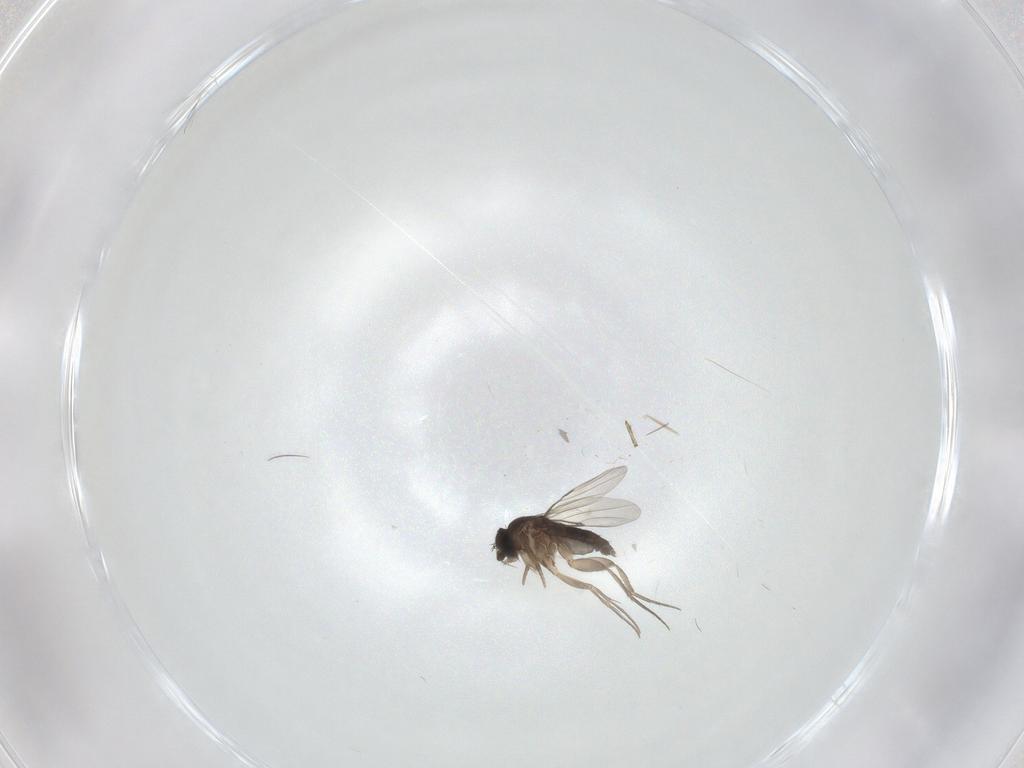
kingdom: Animalia
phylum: Arthropoda
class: Insecta
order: Diptera
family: Phoridae
